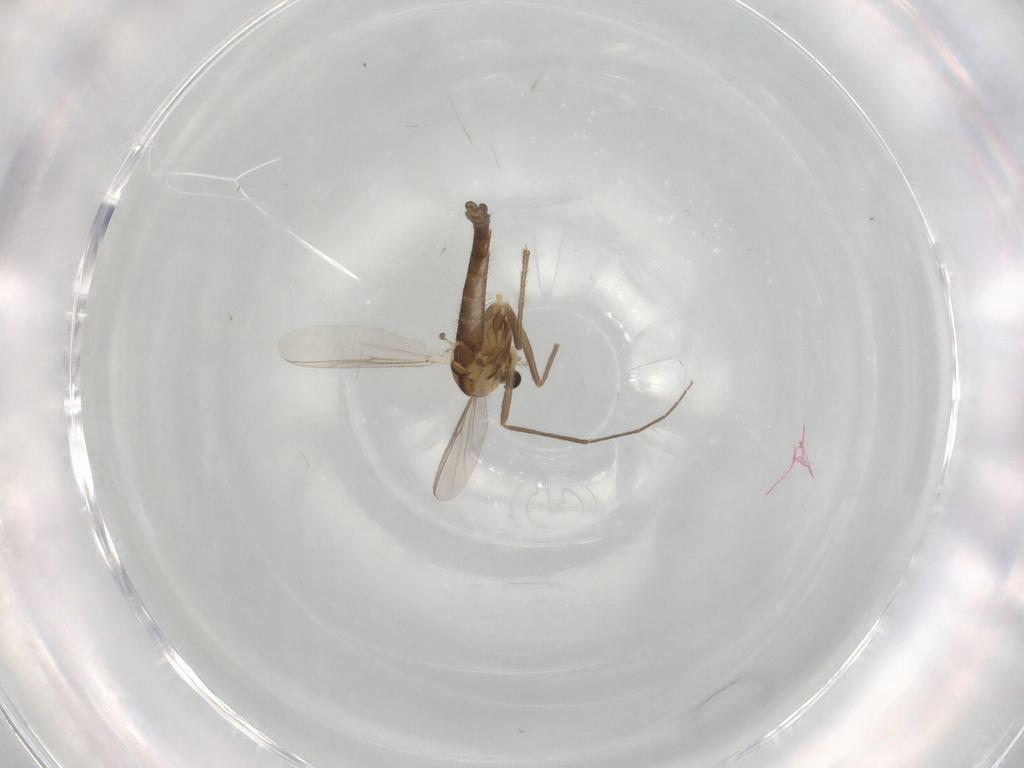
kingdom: Animalia
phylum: Arthropoda
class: Insecta
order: Diptera
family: Chironomidae
